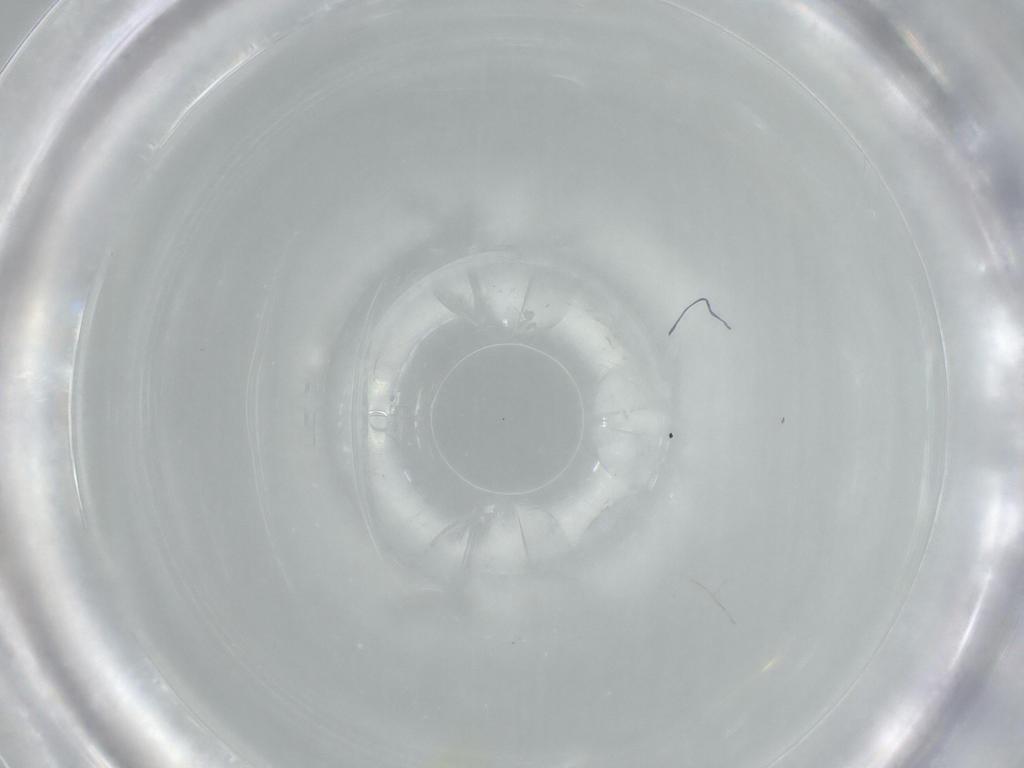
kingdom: Animalia
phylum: Arthropoda
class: Insecta
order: Hemiptera
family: Aleyrodidae
